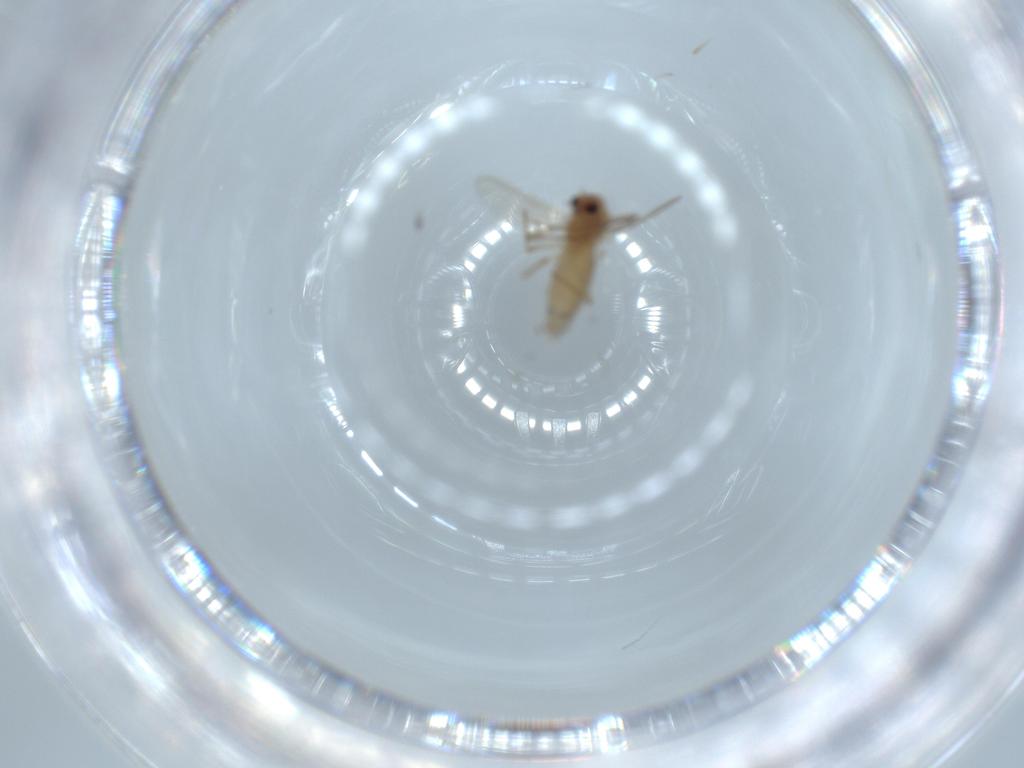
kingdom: Animalia
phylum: Arthropoda
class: Insecta
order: Diptera
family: Chironomidae
